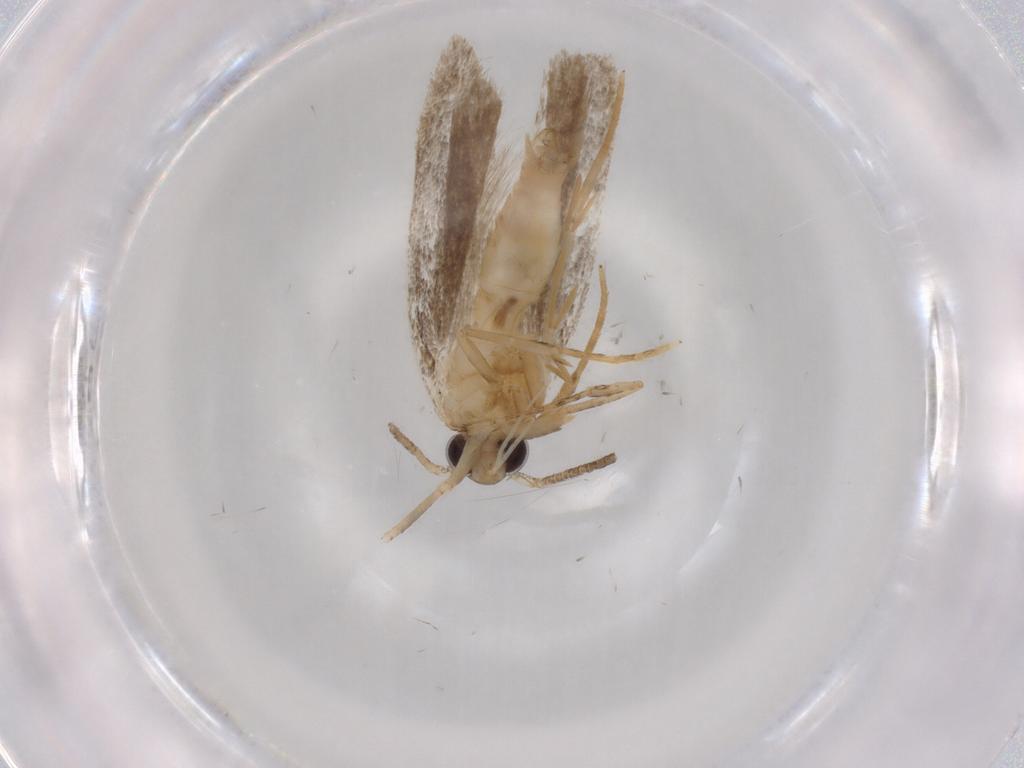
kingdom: Animalia
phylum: Arthropoda
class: Insecta
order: Lepidoptera
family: Autostichidae
